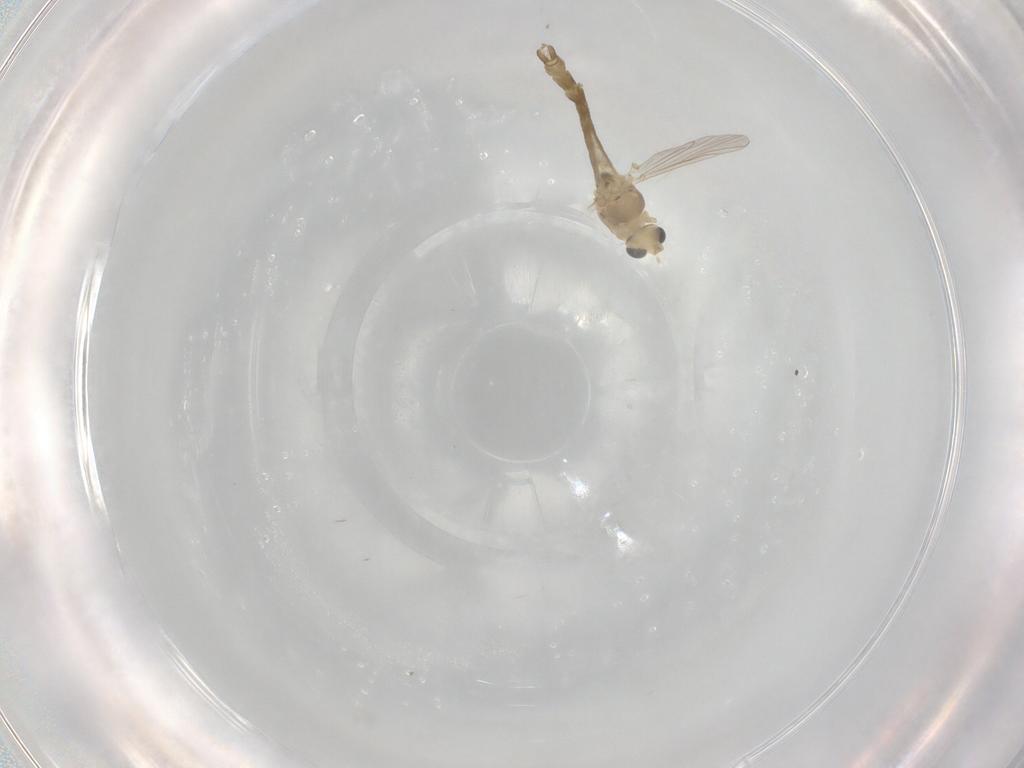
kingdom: Animalia
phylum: Arthropoda
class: Insecta
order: Diptera
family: Chironomidae
